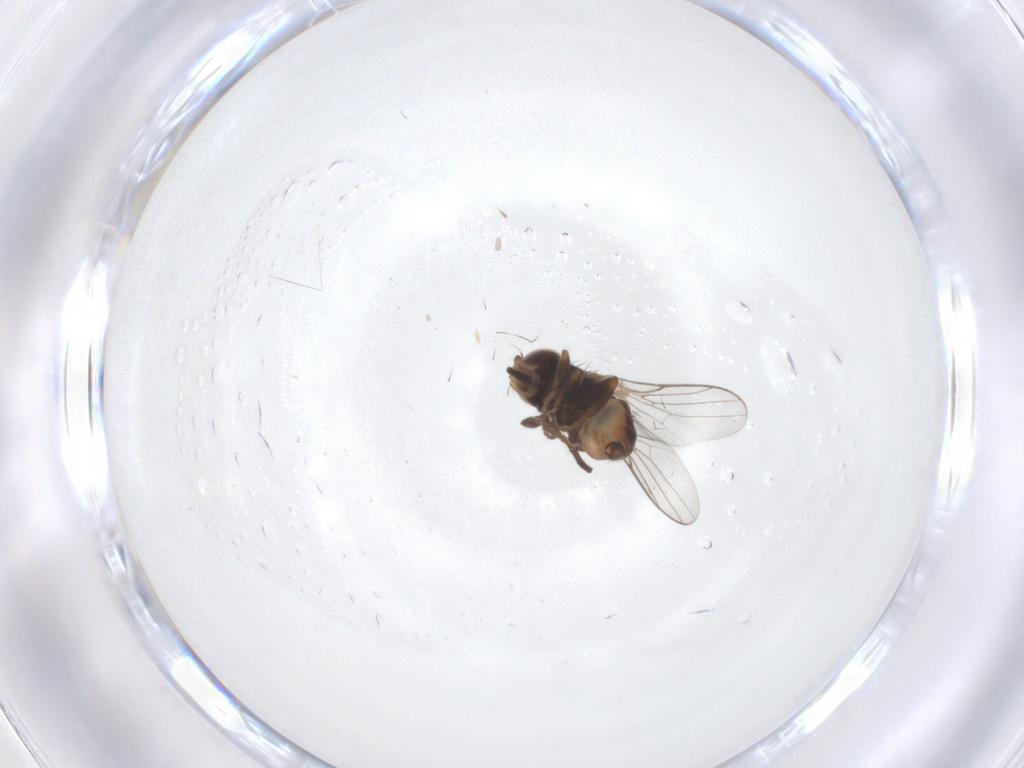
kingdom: Animalia
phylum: Arthropoda
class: Insecta
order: Diptera
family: Chloropidae
